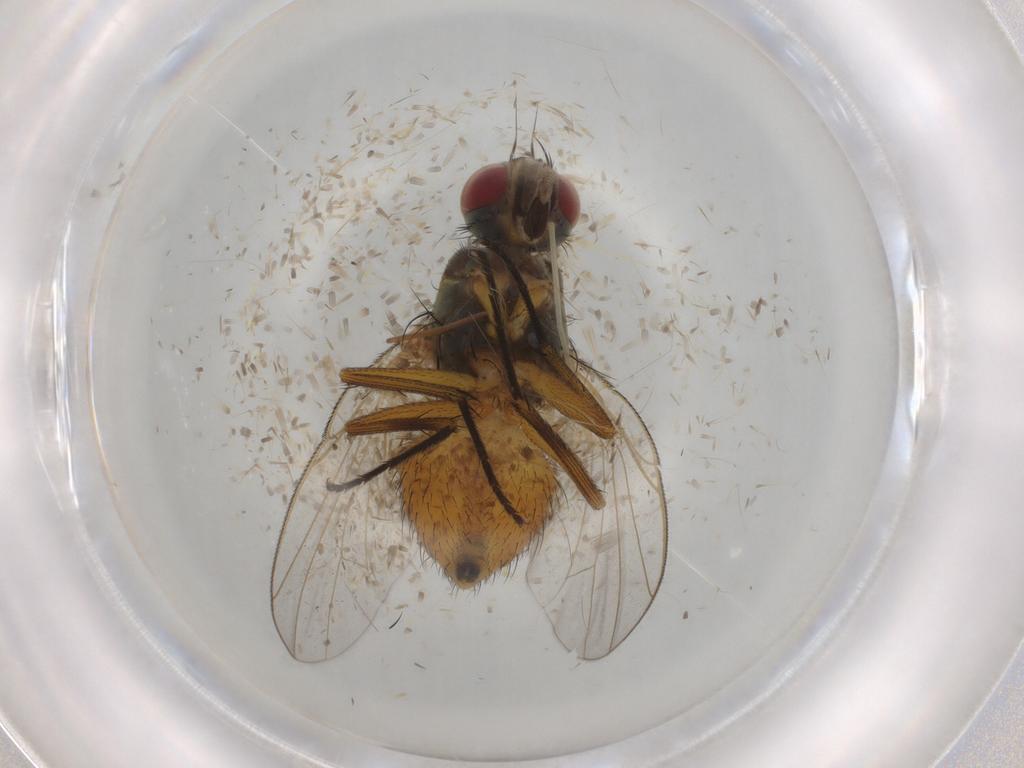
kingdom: Animalia
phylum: Arthropoda
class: Insecta
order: Diptera
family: Muscidae
